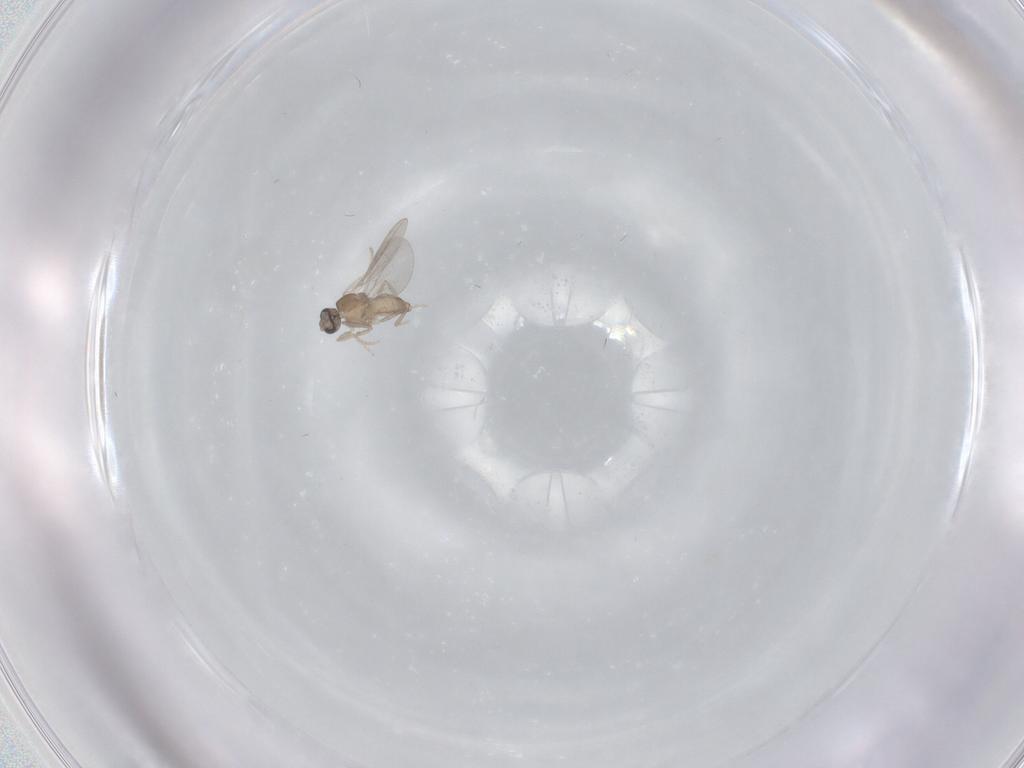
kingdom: Animalia
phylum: Arthropoda
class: Insecta
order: Diptera
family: Cecidomyiidae
